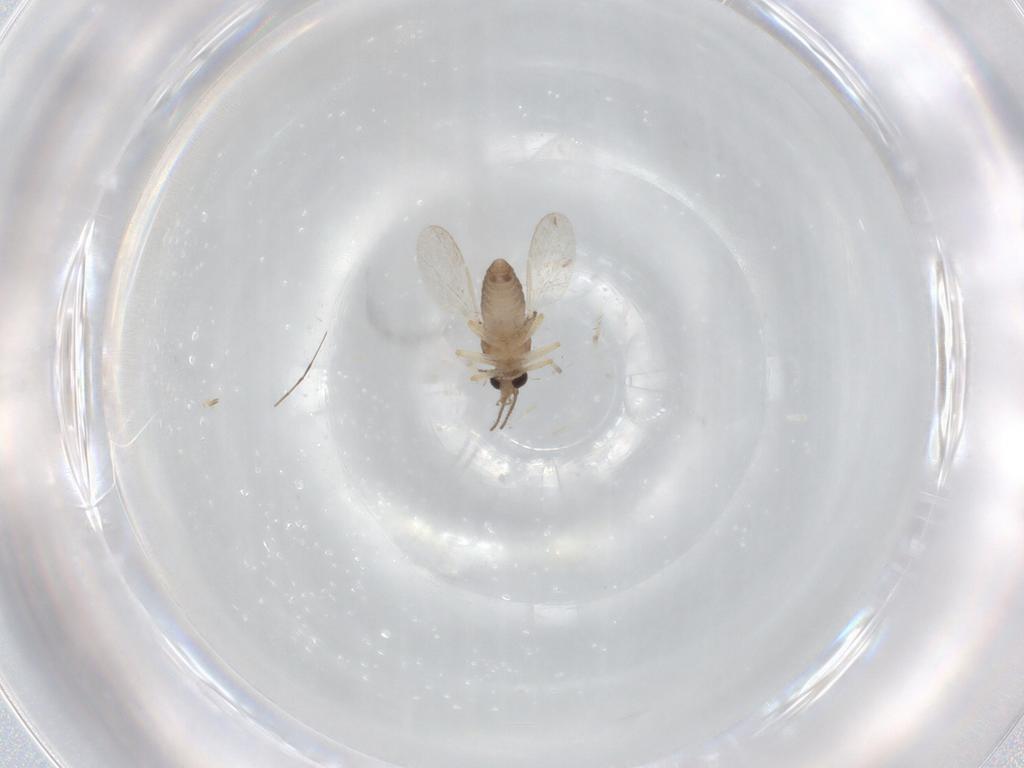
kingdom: Animalia
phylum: Arthropoda
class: Insecta
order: Diptera
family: Ceratopogonidae
